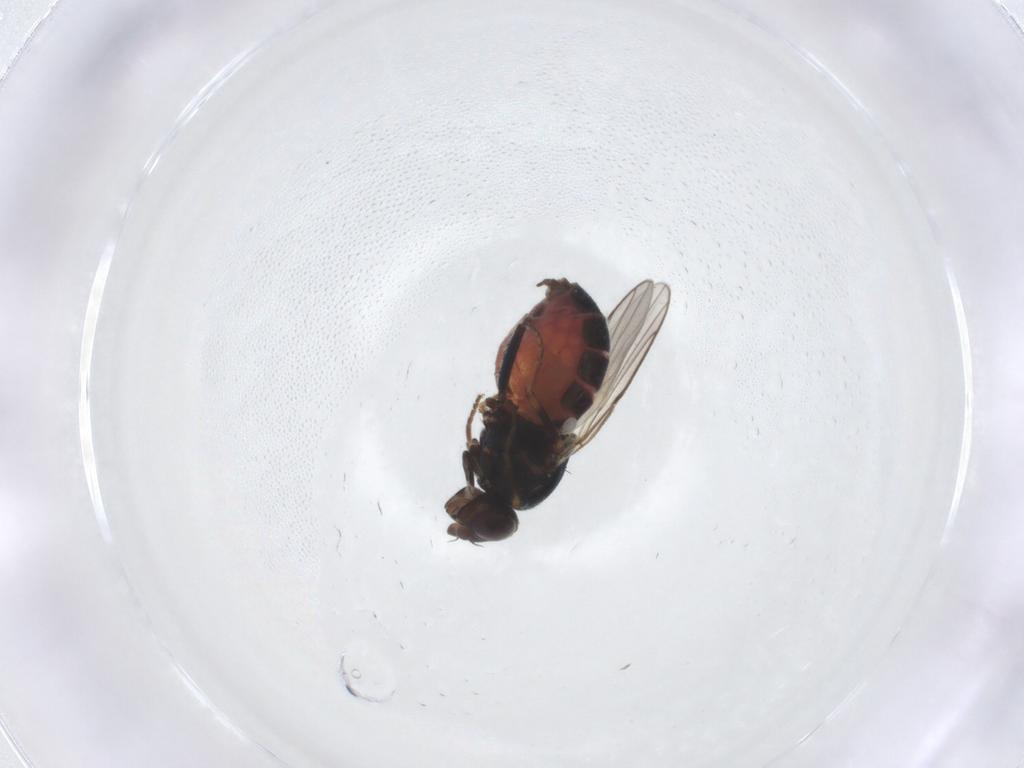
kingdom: Animalia
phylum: Arthropoda
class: Insecta
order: Diptera
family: Chloropidae
